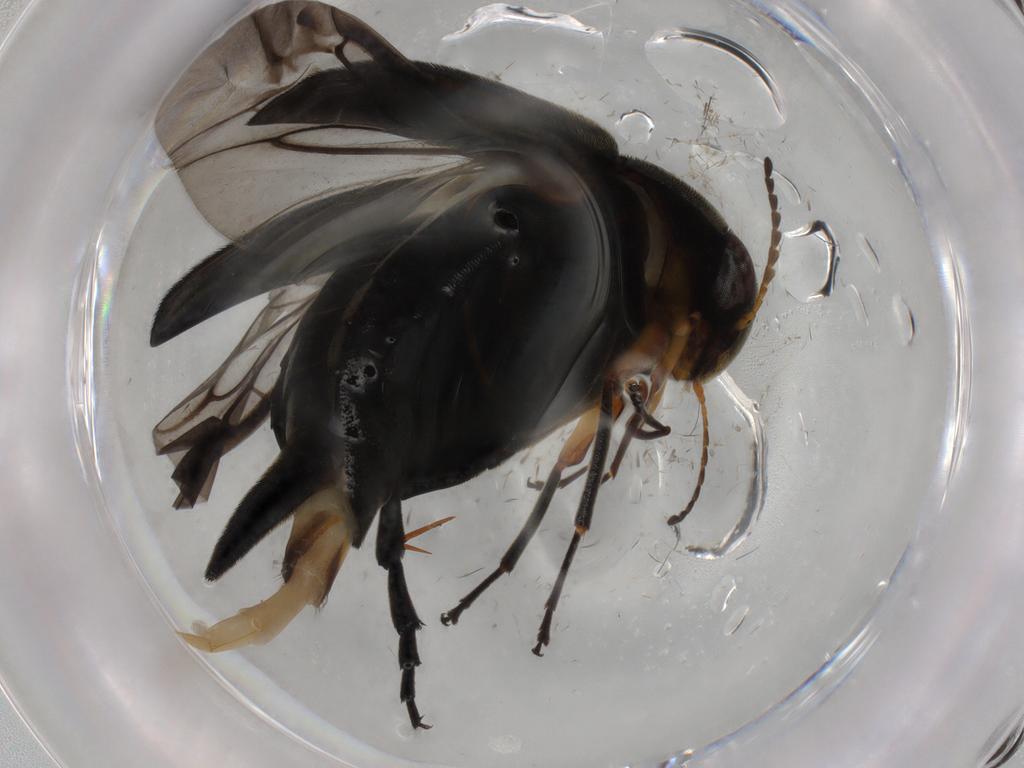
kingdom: Animalia
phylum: Arthropoda
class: Insecta
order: Coleoptera
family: Mordellidae
